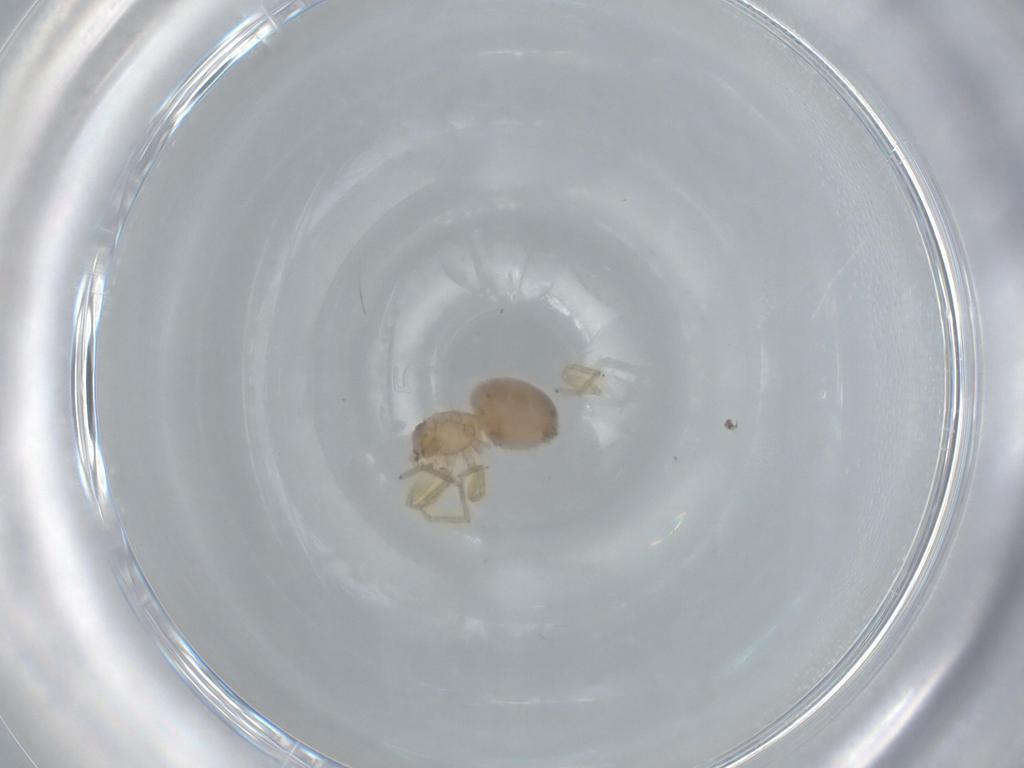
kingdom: Animalia
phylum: Arthropoda
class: Arachnida
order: Araneae
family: Oonopidae
